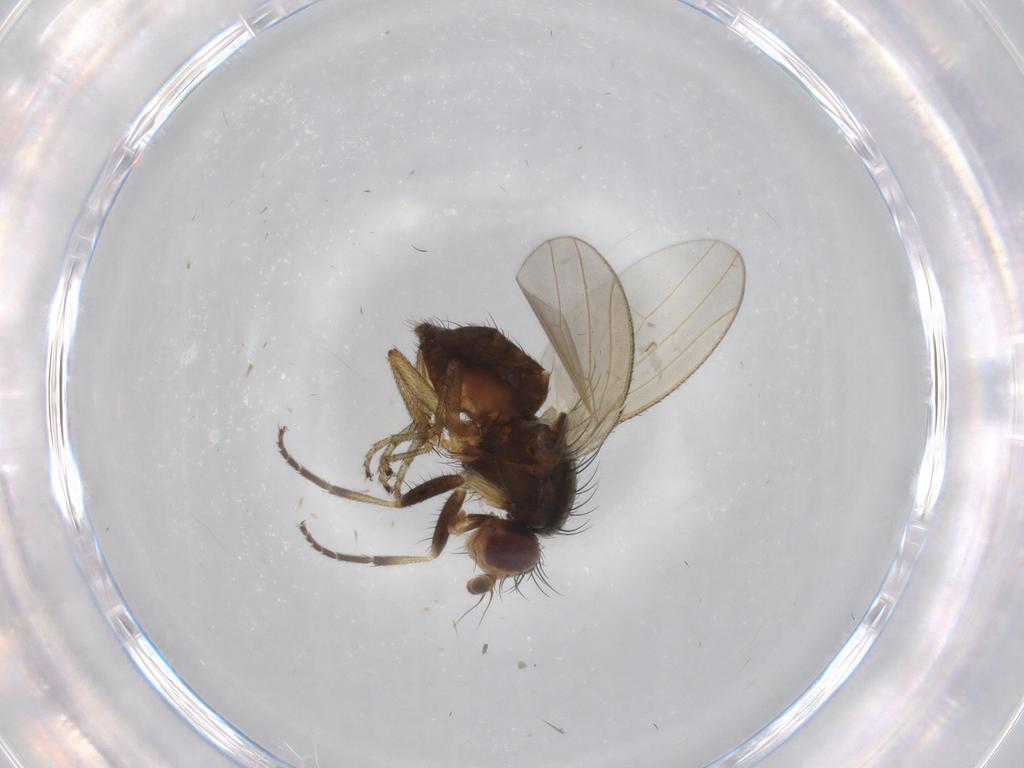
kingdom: Animalia
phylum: Arthropoda
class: Insecta
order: Diptera
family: Ulidiidae
